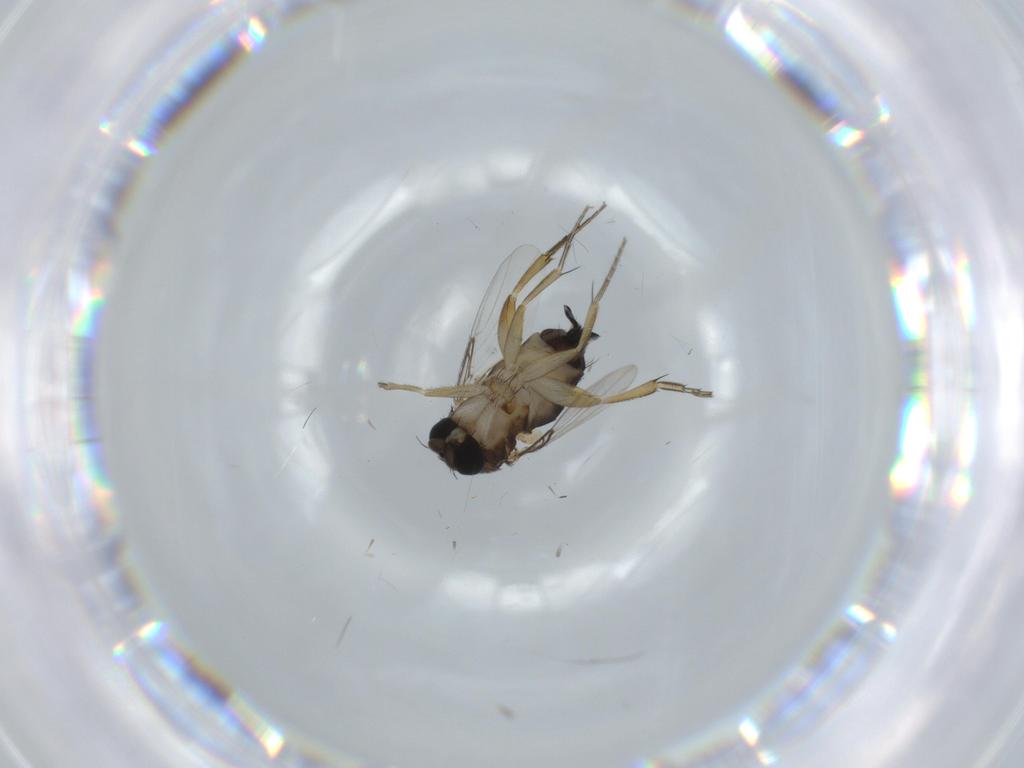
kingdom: Animalia
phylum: Arthropoda
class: Insecta
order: Diptera
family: Phoridae
